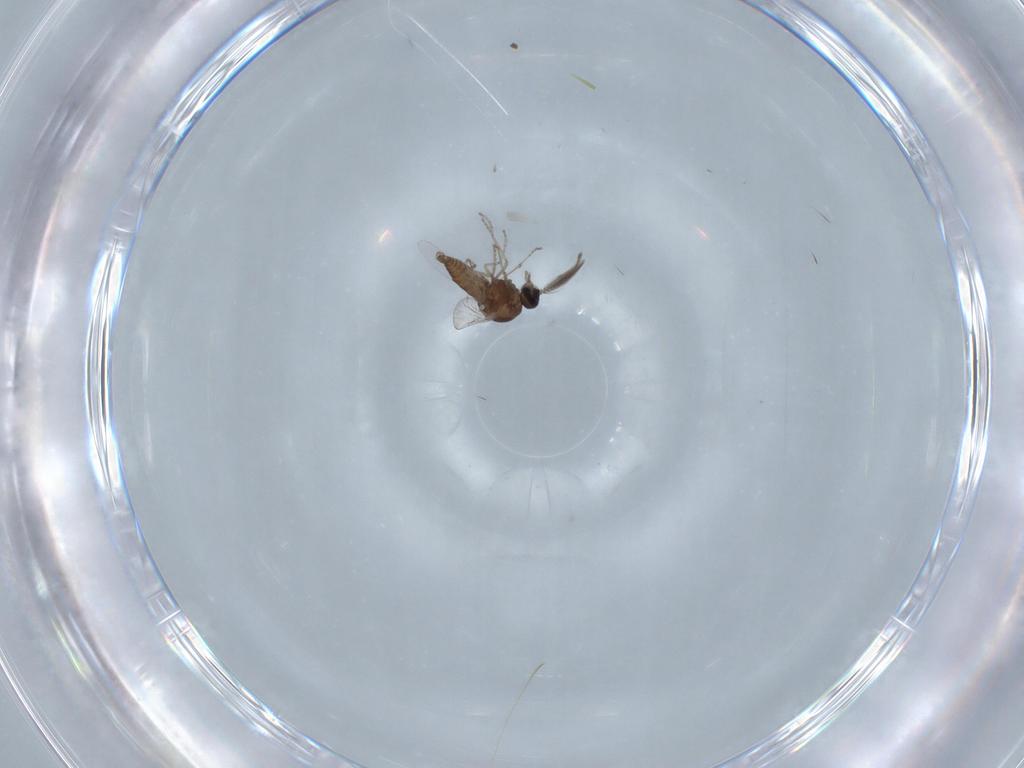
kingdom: Animalia
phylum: Arthropoda
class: Insecta
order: Diptera
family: Ceratopogonidae
